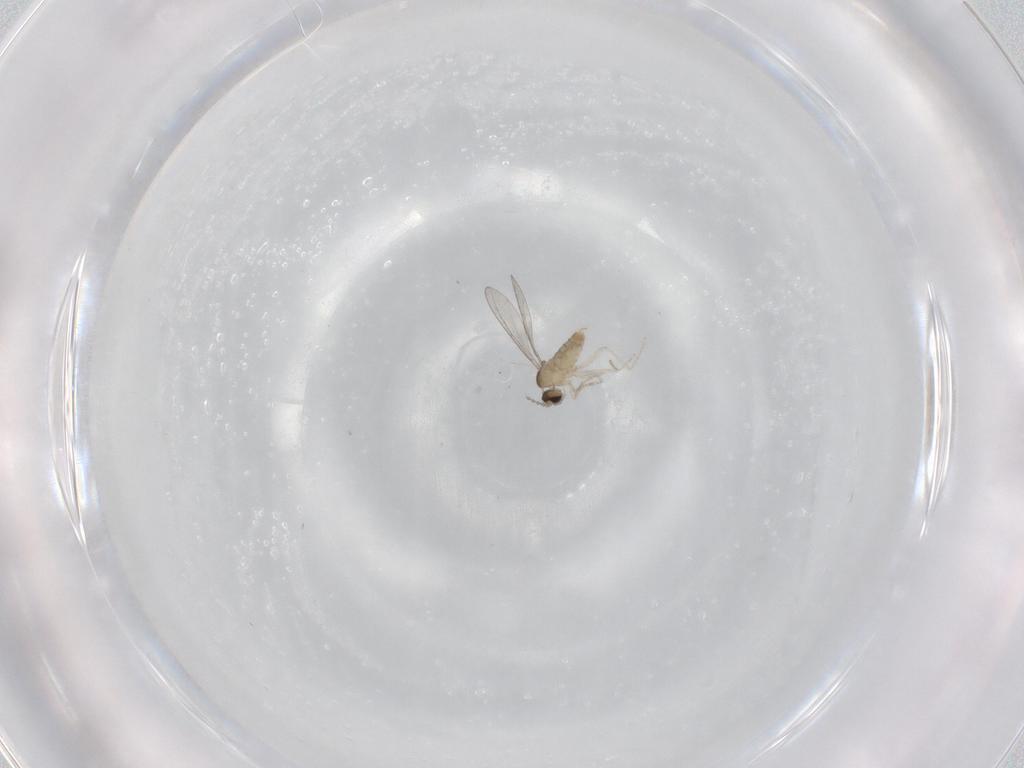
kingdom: Animalia
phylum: Arthropoda
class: Insecta
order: Diptera
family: Cecidomyiidae
